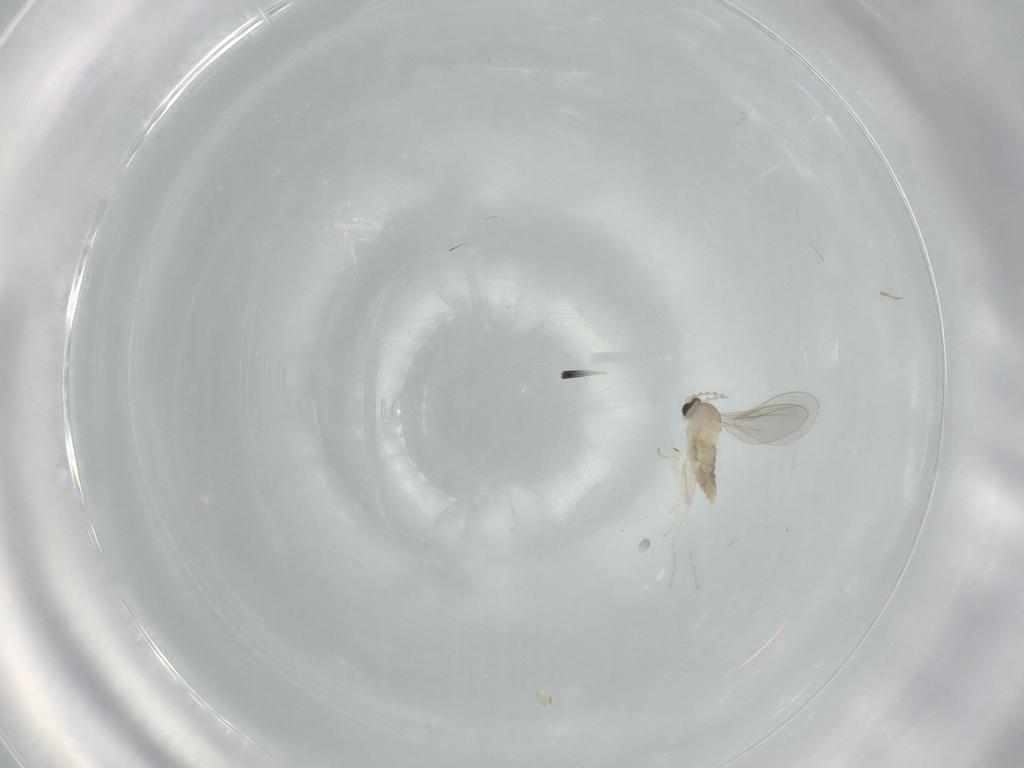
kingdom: Animalia
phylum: Arthropoda
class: Insecta
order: Diptera
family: Cecidomyiidae
